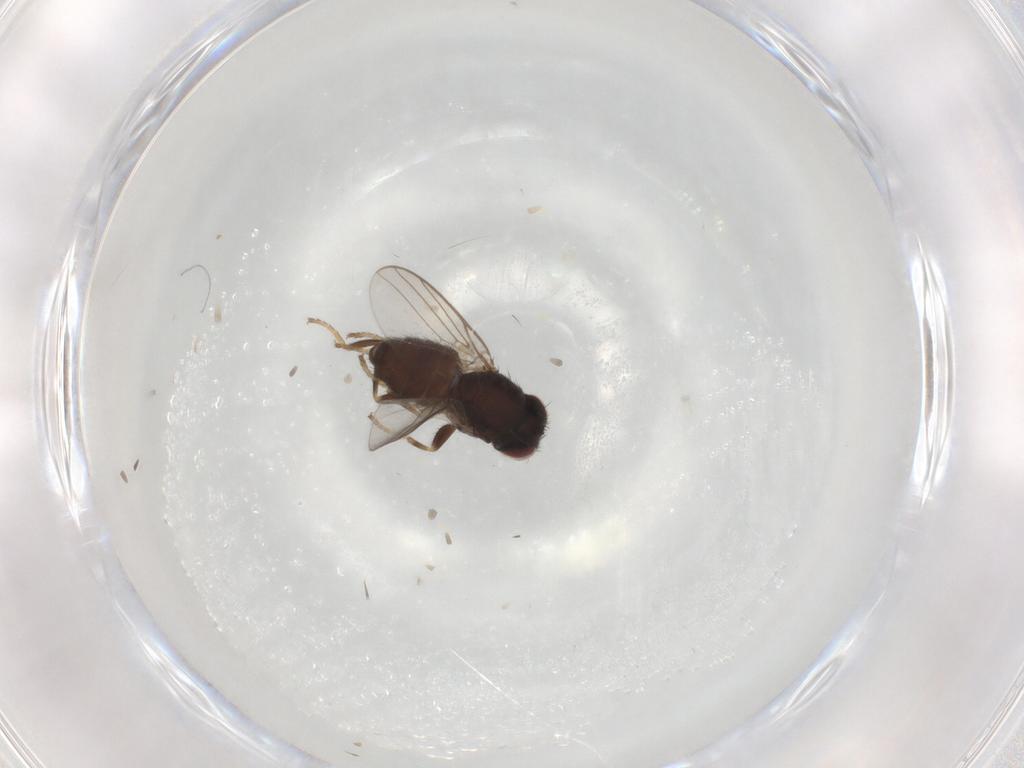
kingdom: Animalia
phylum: Arthropoda
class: Insecta
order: Diptera
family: Chloropidae
